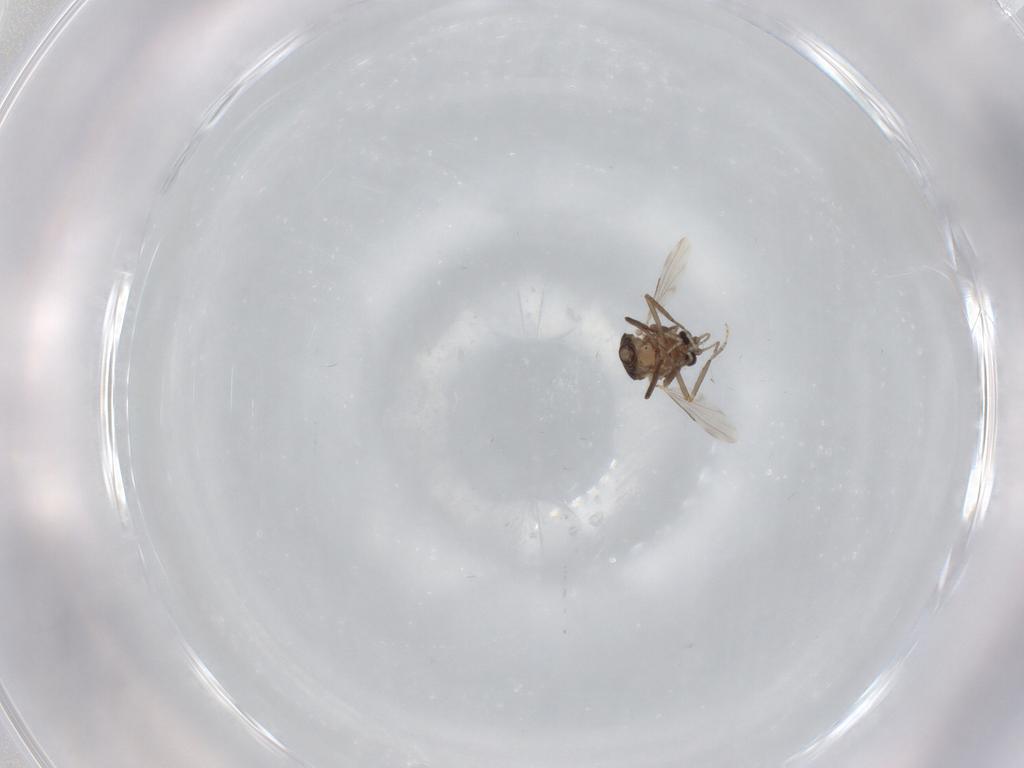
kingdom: Animalia
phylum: Arthropoda
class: Insecta
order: Diptera
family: Ceratopogonidae
